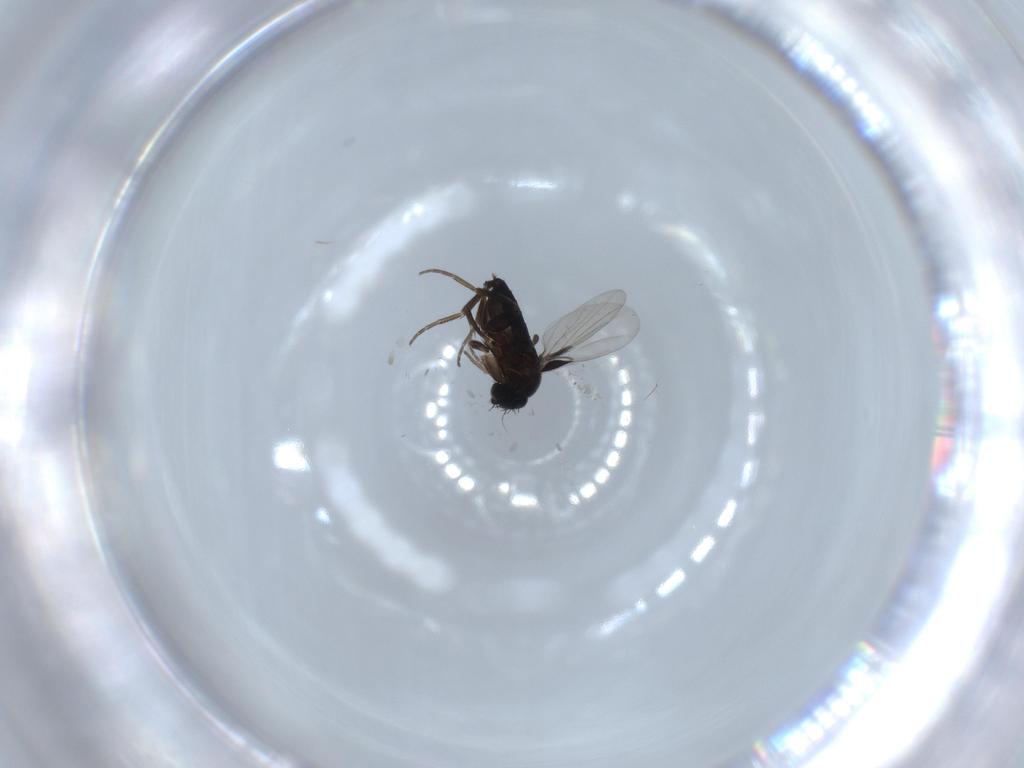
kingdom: Animalia
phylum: Arthropoda
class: Insecta
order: Diptera
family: Phoridae
